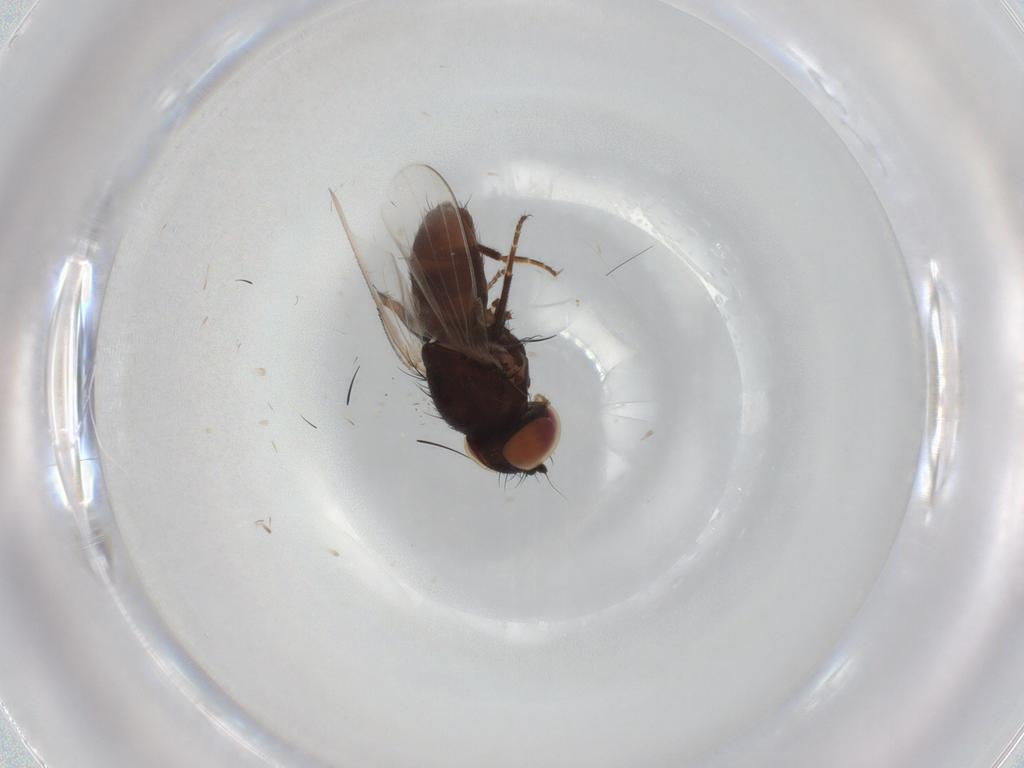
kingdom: Animalia
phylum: Arthropoda
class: Insecta
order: Diptera
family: Milichiidae
